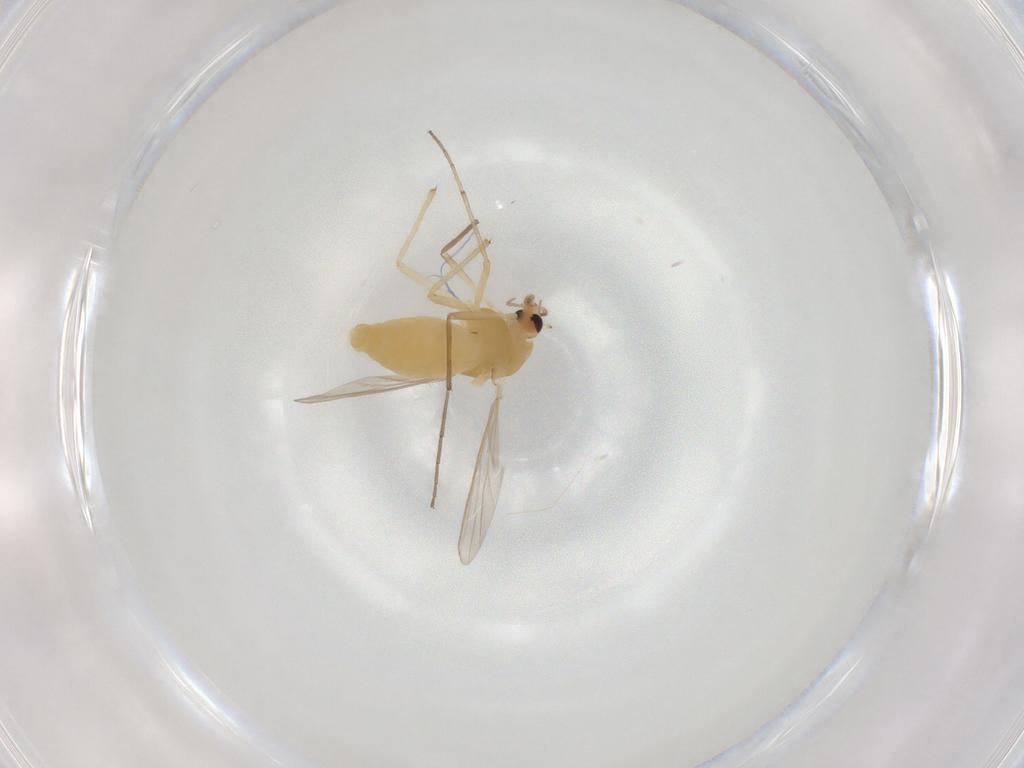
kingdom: Animalia
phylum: Arthropoda
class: Insecta
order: Diptera
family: Chironomidae
